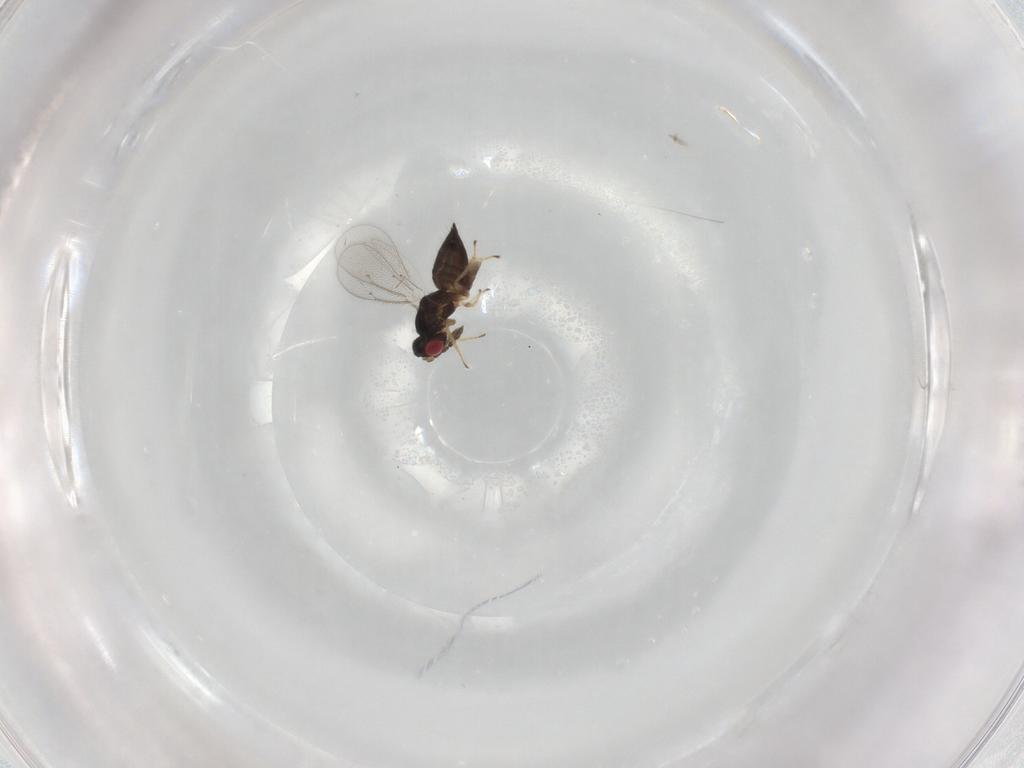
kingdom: Animalia
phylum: Arthropoda
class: Insecta
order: Hymenoptera
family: Eulophidae
